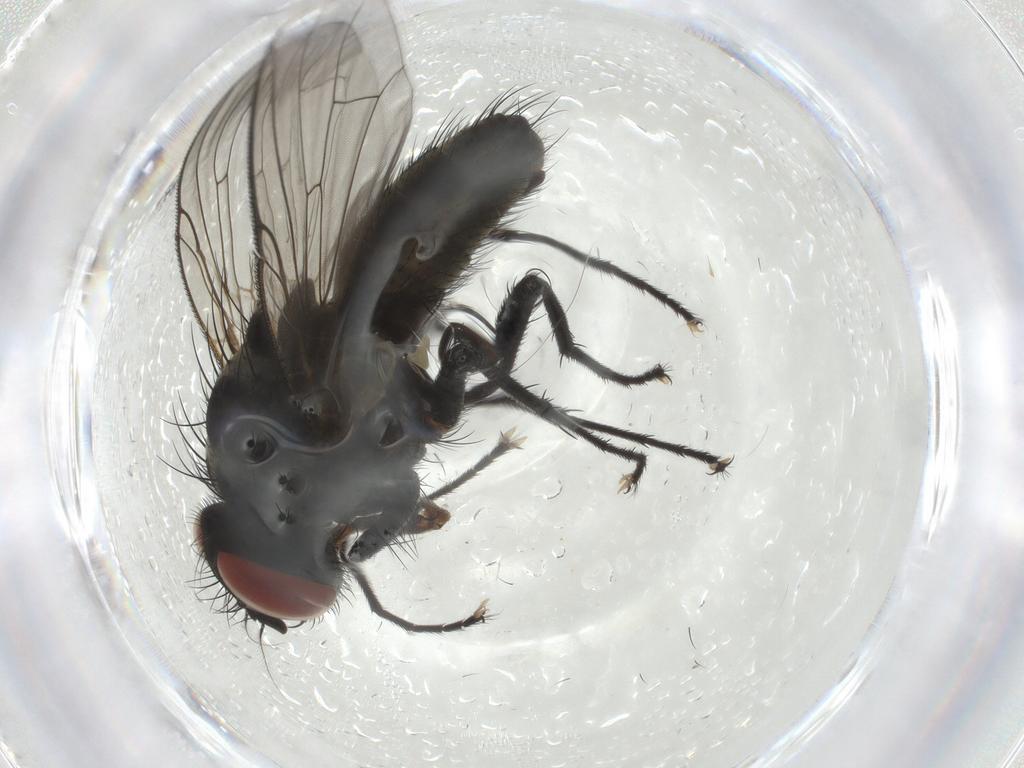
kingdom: Animalia
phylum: Arthropoda
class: Insecta
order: Diptera
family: Muscidae
